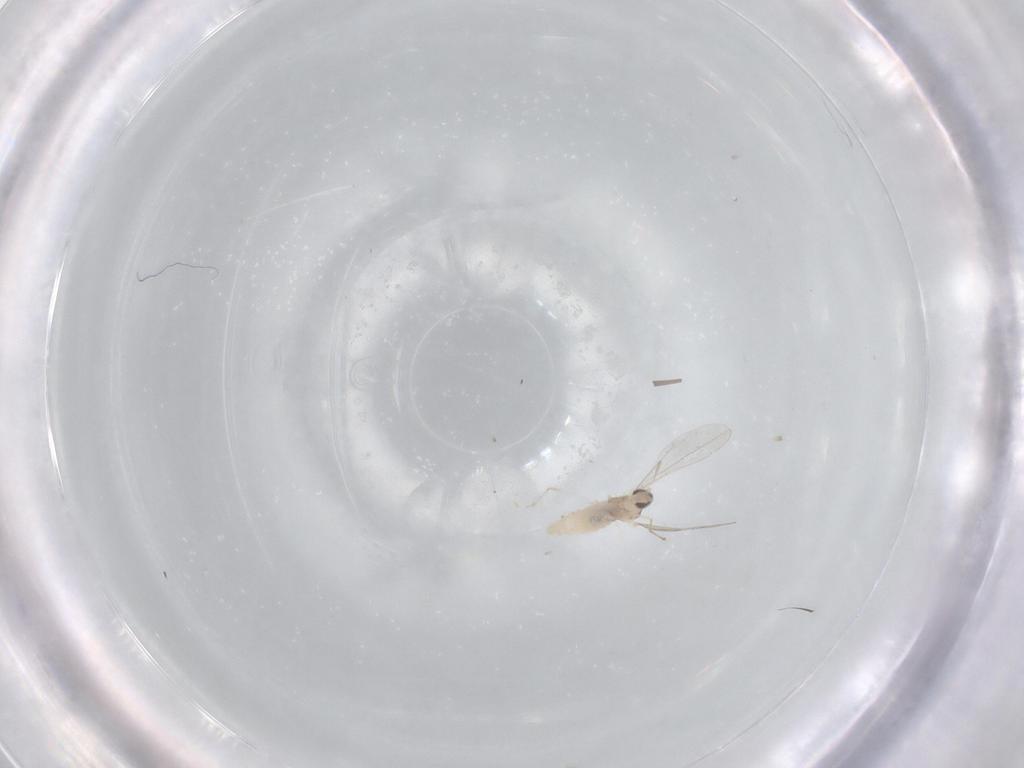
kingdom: Animalia
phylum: Arthropoda
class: Insecta
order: Diptera
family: Cecidomyiidae
